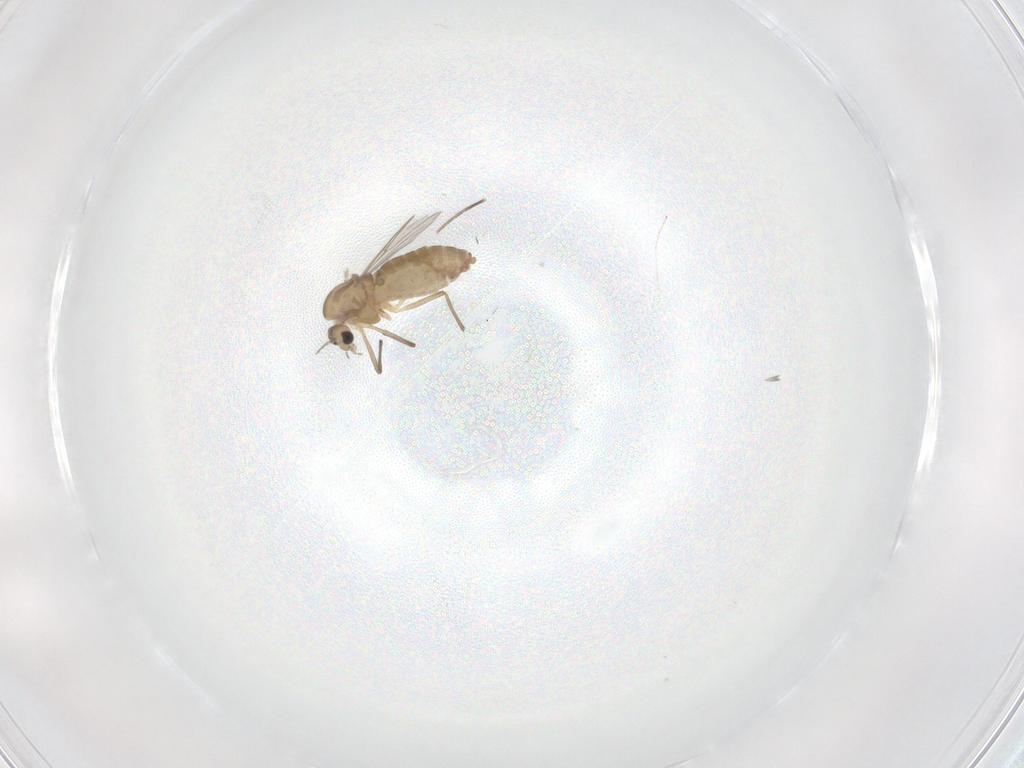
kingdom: Animalia
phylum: Arthropoda
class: Insecta
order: Diptera
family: Chironomidae
